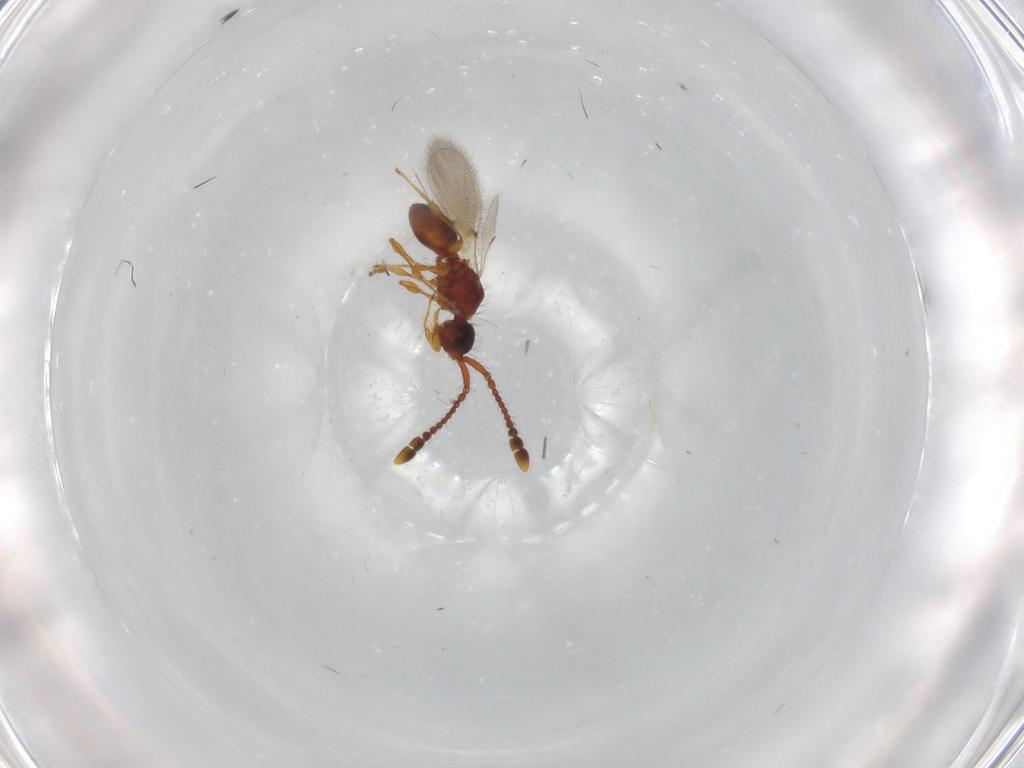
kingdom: Animalia
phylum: Arthropoda
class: Insecta
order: Hymenoptera
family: Diapriidae
